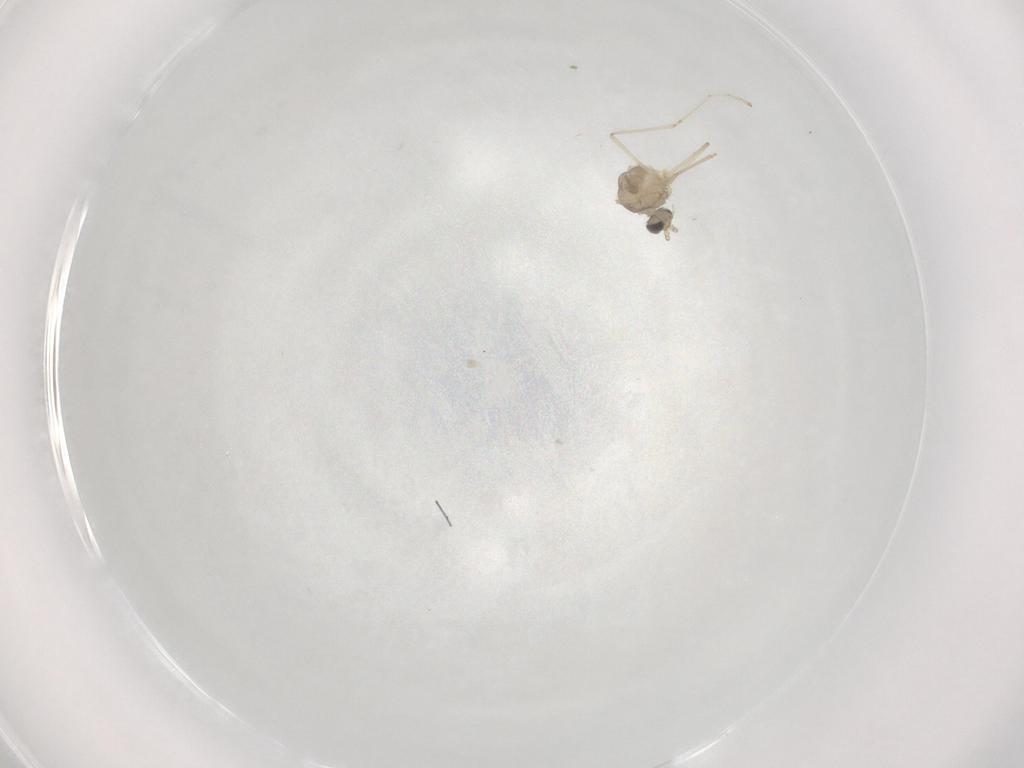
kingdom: Animalia
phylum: Arthropoda
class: Insecta
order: Diptera
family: Cecidomyiidae
